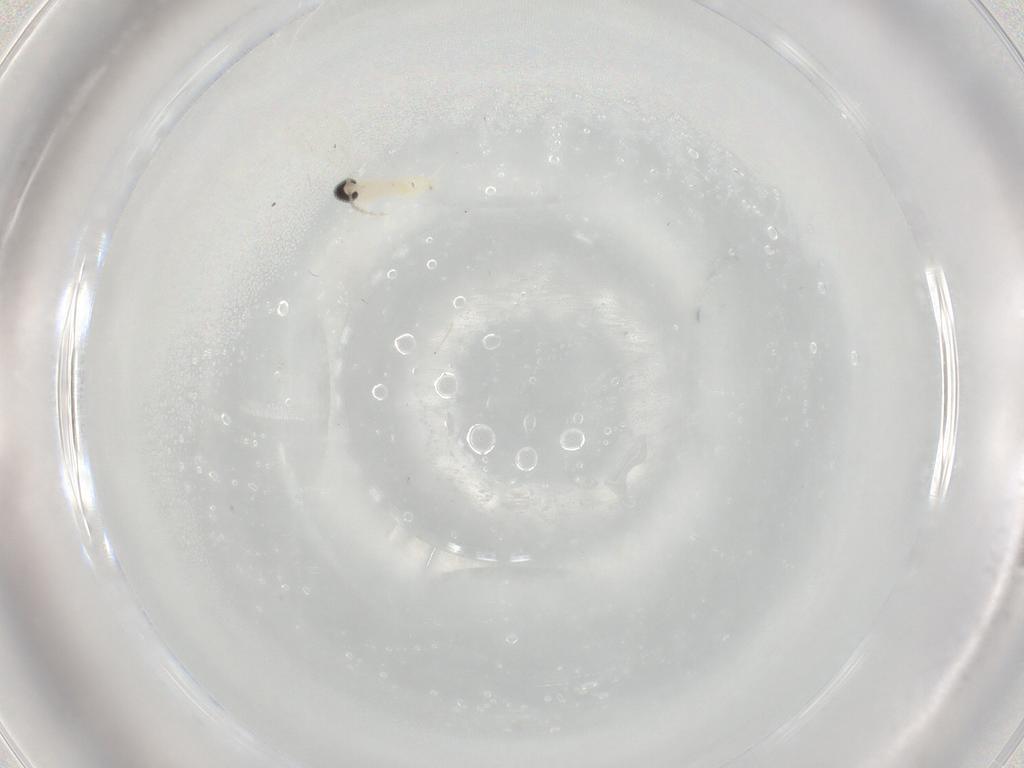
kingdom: Animalia
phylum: Arthropoda
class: Insecta
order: Diptera
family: Cecidomyiidae
